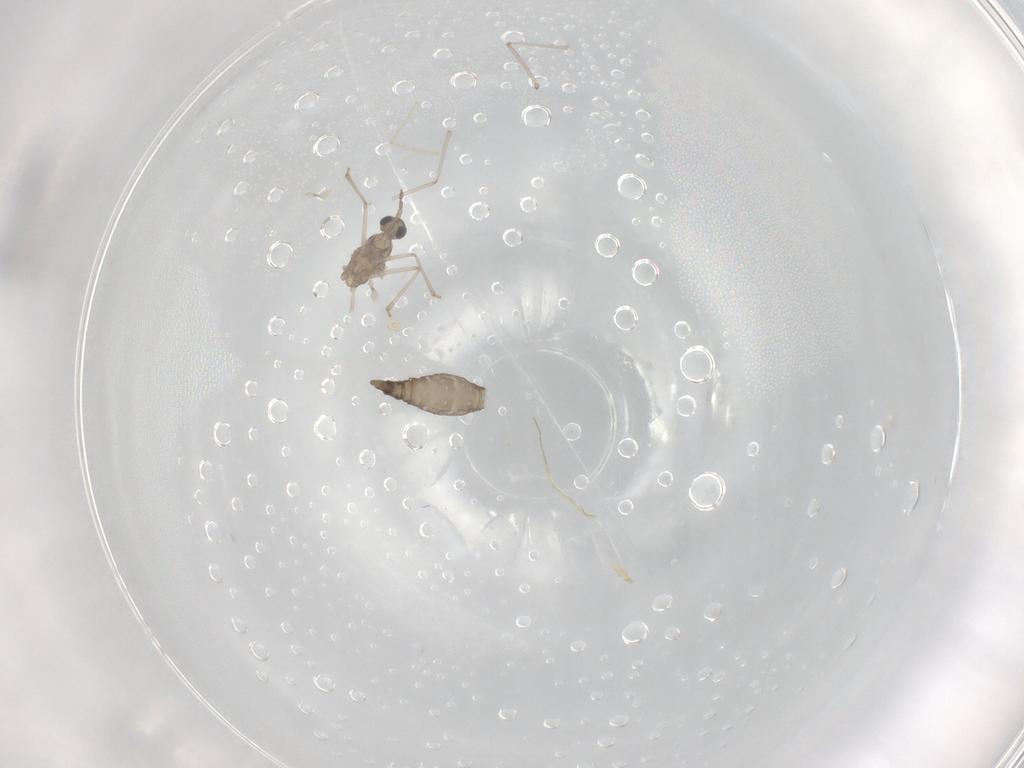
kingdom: Animalia
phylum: Arthropoda
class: Insecta
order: Diptera
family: Cecidomyiidae
